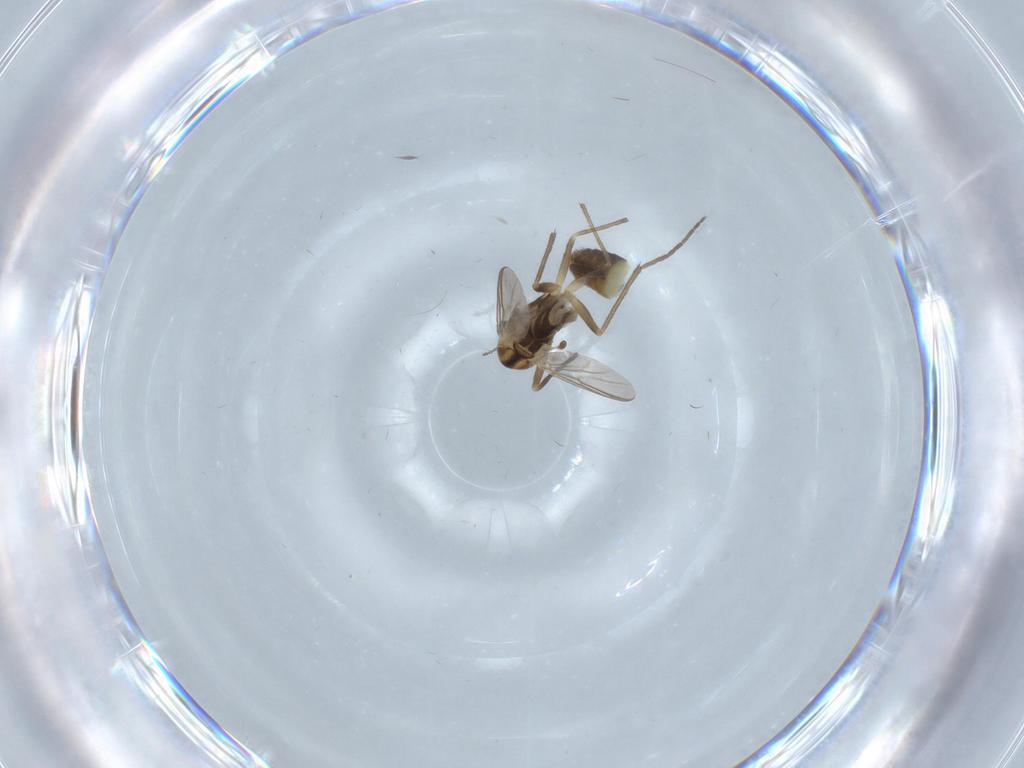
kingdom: Animalia
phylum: Arthropoda
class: Insecta
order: Diptera
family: Chironomidae
